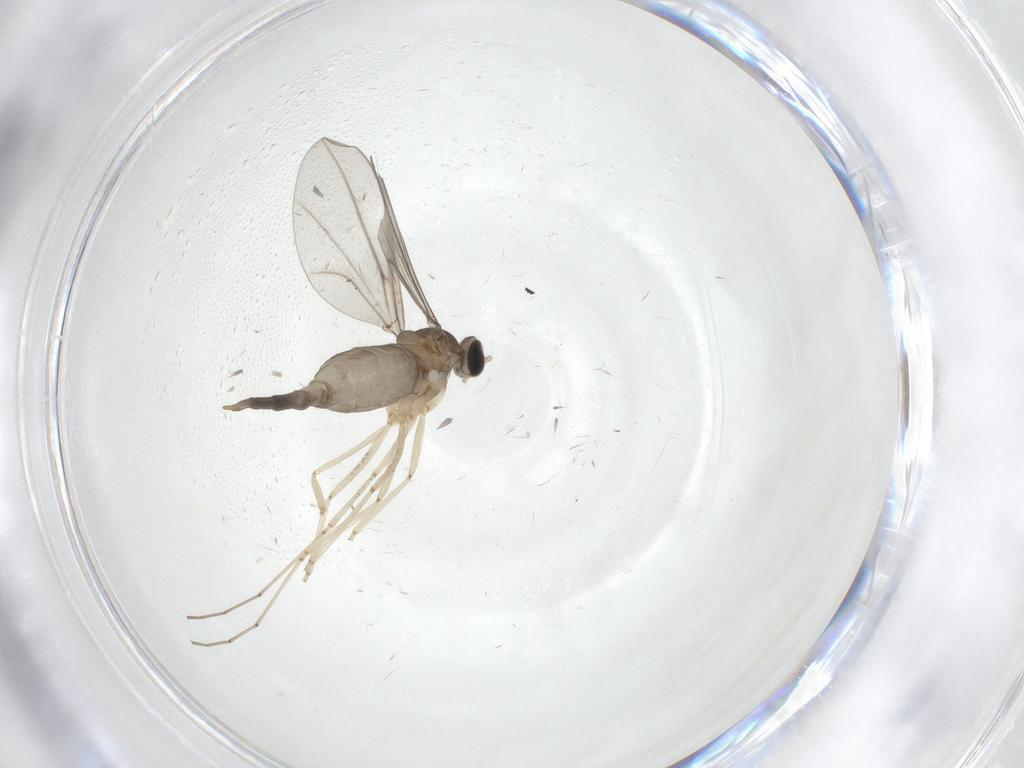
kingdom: Animalia
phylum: Arthropoda
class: Insecta
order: Diptera
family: Cecidomyiidae
